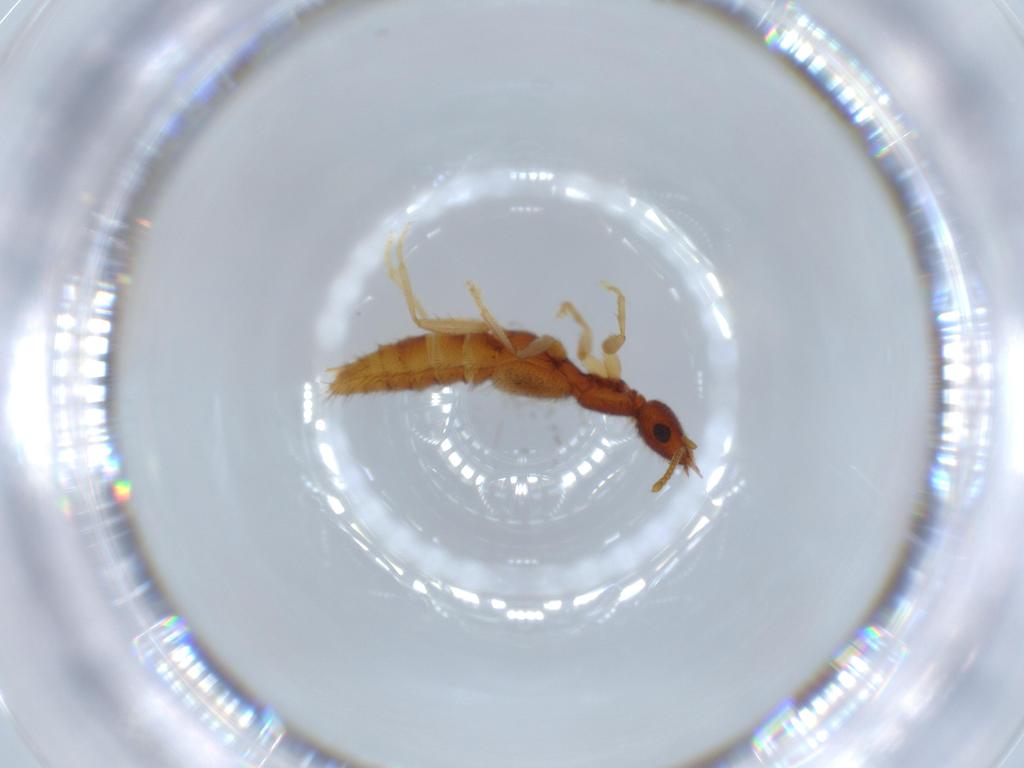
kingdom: Animalia
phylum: Arthropoda
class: Insecta
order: Coleoptera
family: Staphylinidae
